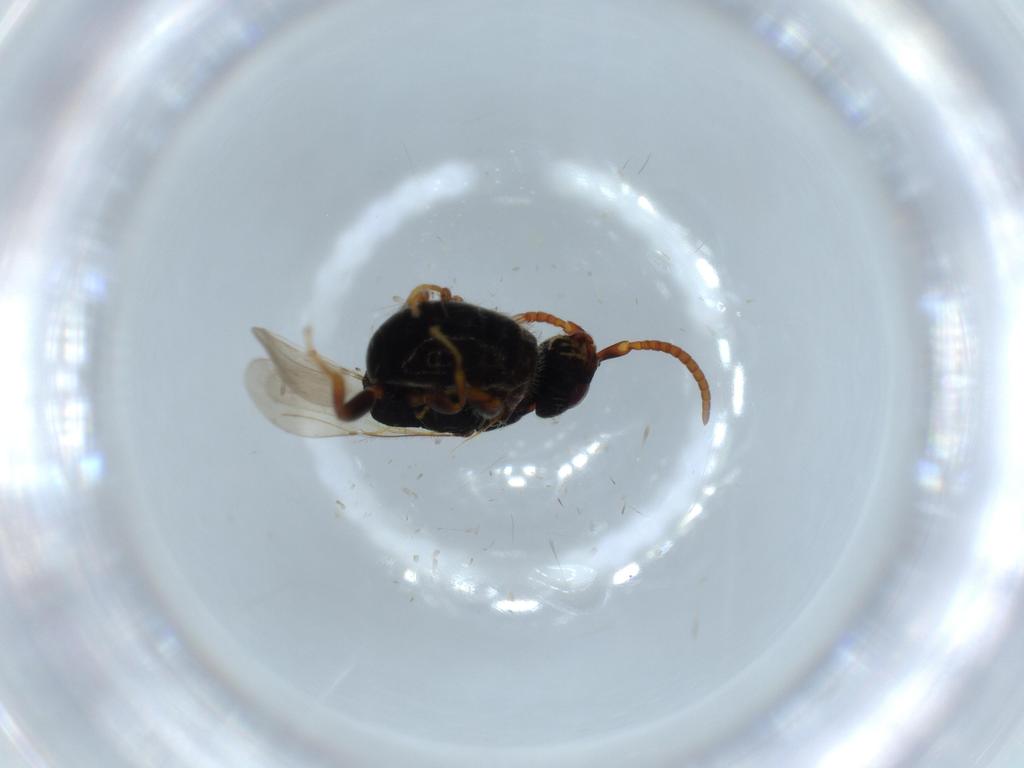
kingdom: Animalia
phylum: Arthropoda
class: Insecta
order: Hymenoptera
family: Bethylidae
